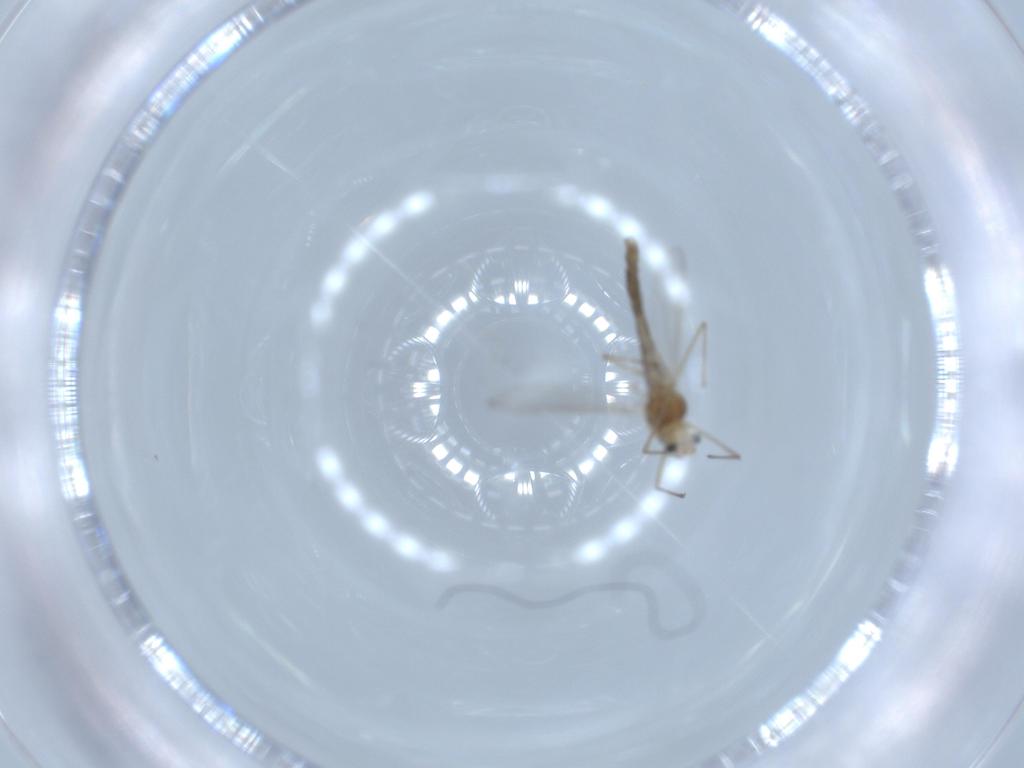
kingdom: Animalia
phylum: Arthropoda
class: Insecta
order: Diptera
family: Chironomidae
